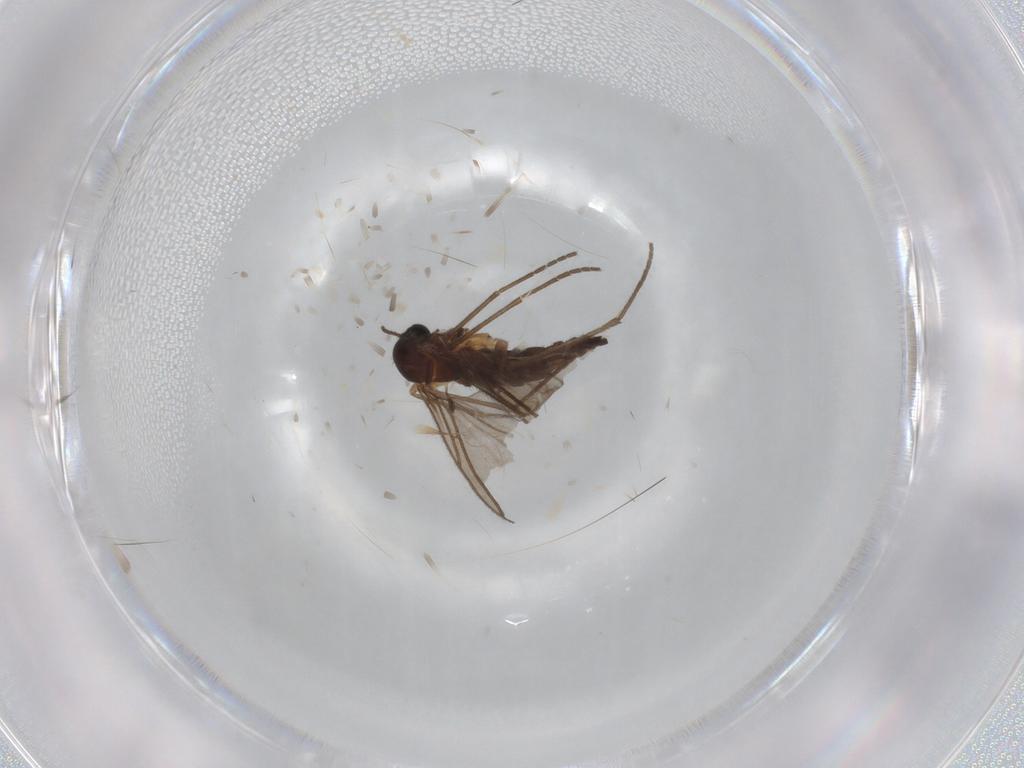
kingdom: Animalia
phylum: Arthropoda
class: Insecta
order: Diptera
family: Sciaridae
